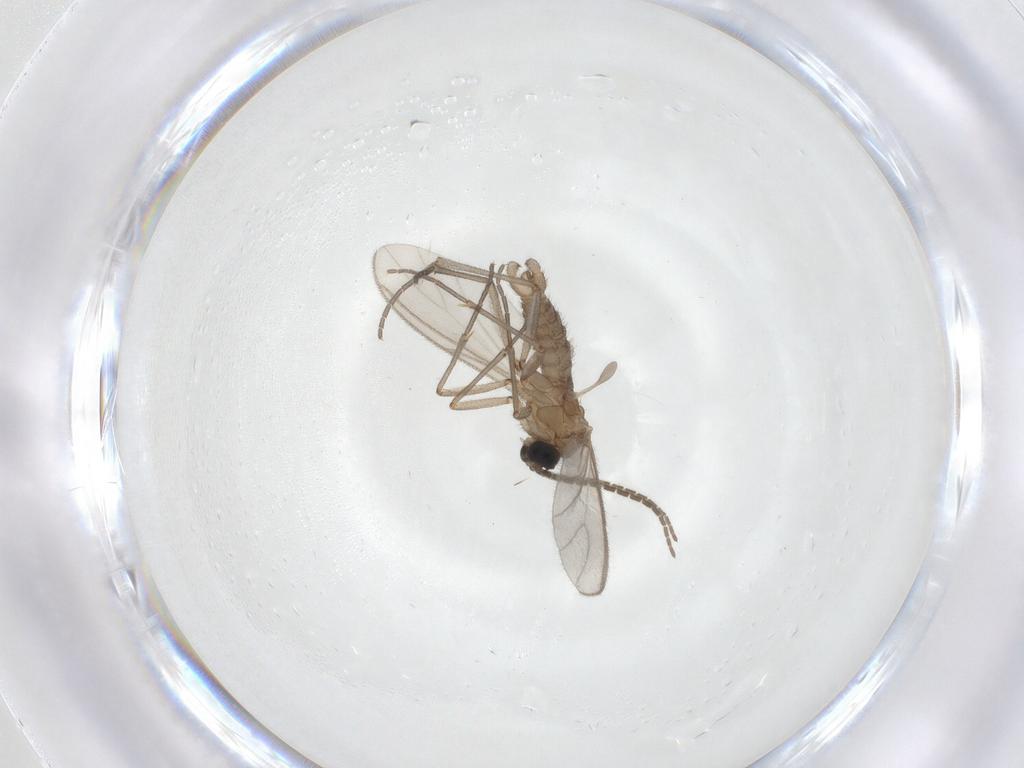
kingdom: Animalia
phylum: Arthropoda
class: Insecta
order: Diptera
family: Sciaridae
